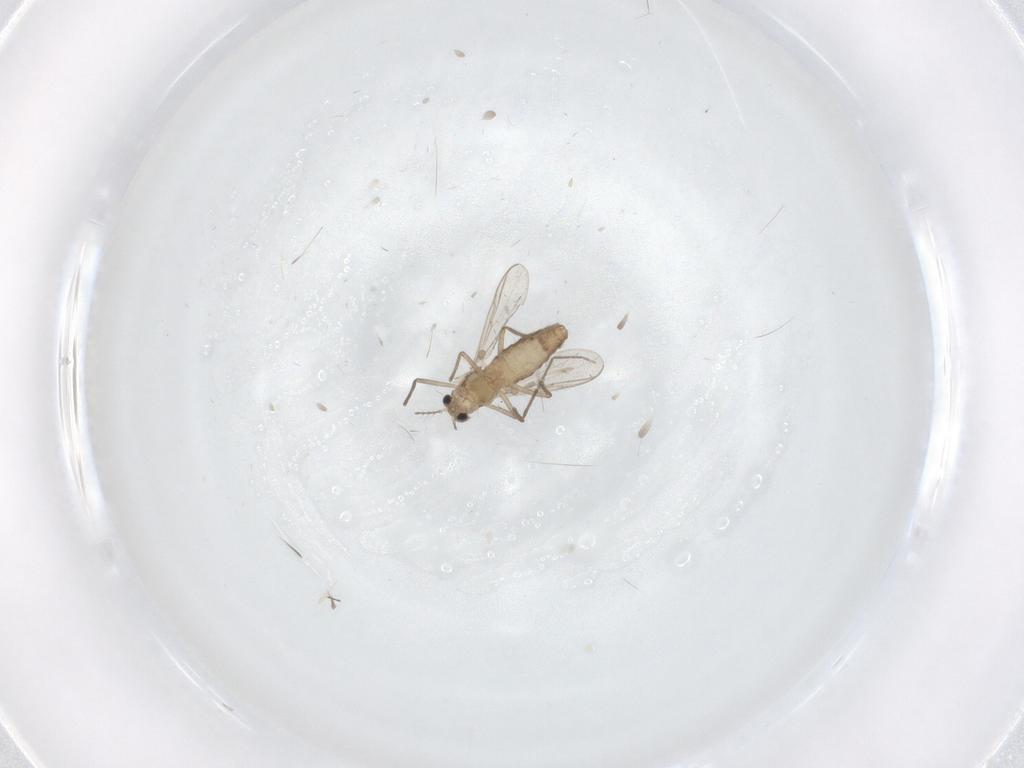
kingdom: Animalia
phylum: Arthropoda
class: Insecta
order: Diptera
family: Chironomidae
